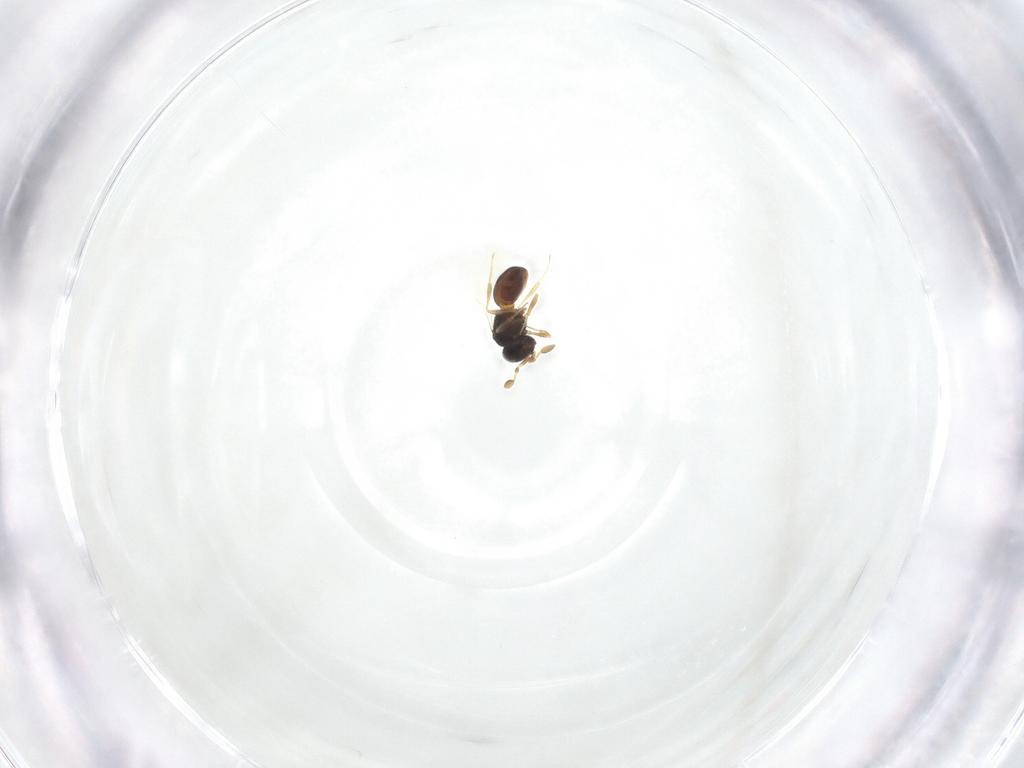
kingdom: Animalia
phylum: Arthropoda
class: Insecta
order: Hymenoptera
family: Scelionidae
